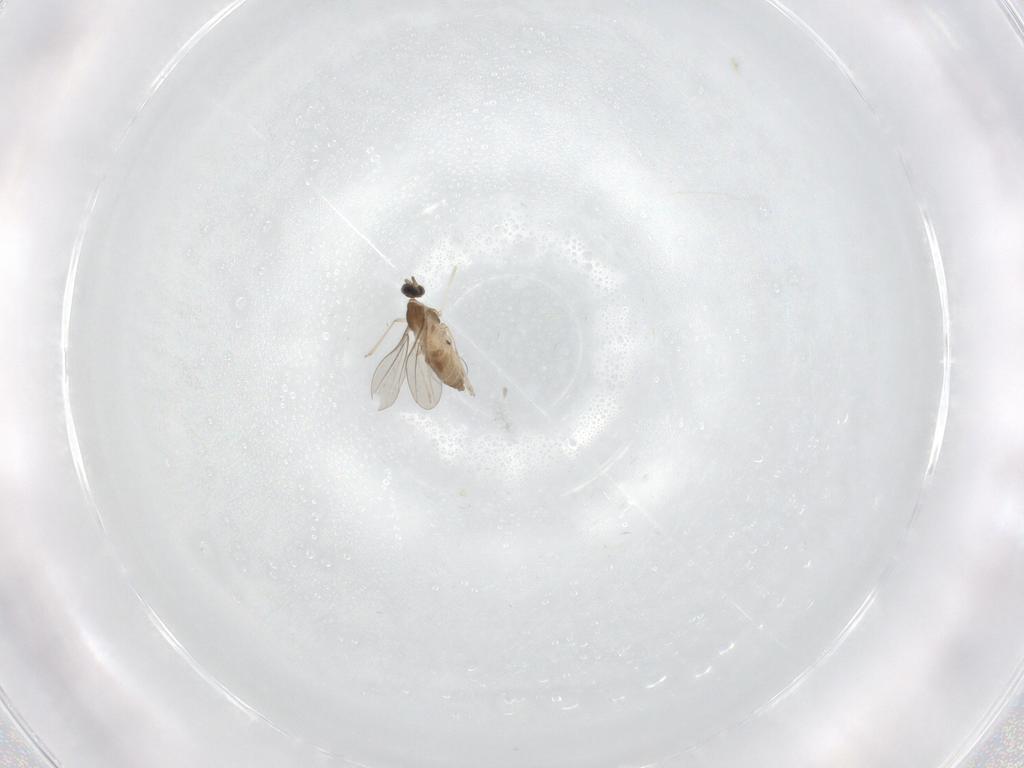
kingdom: Animalia
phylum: Arthropoda
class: Insecta
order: Diptera
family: Cecidomyiidae
